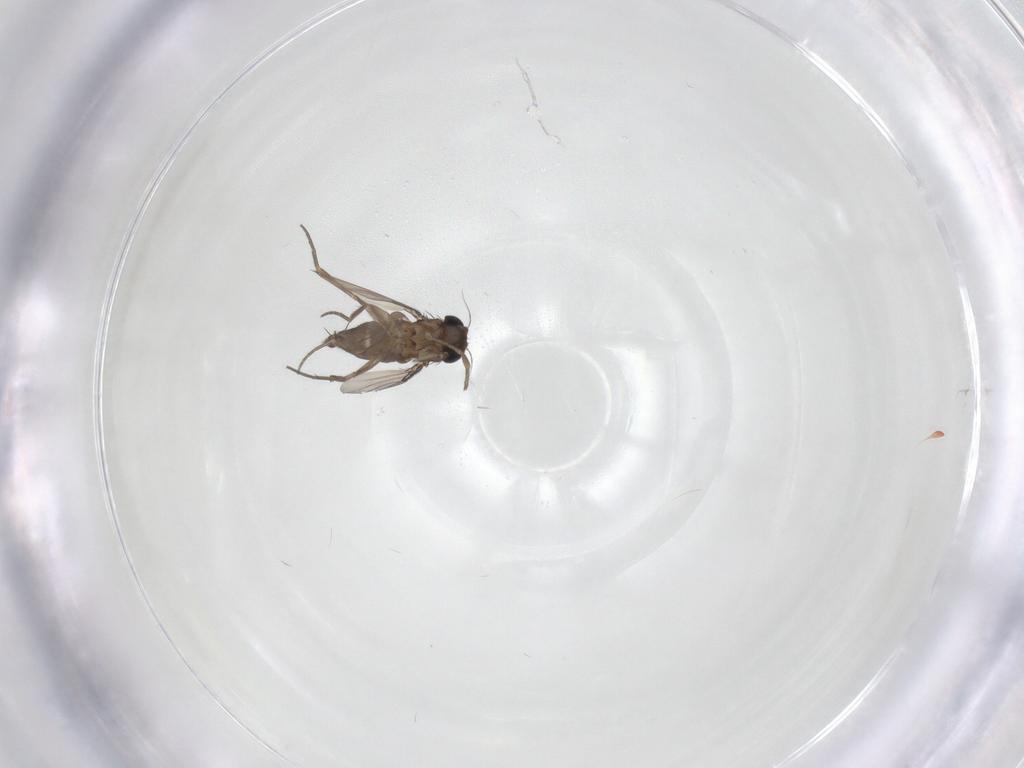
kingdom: Animalia
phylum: Arthropoda
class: Insecta
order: Diptera
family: Phoridae
